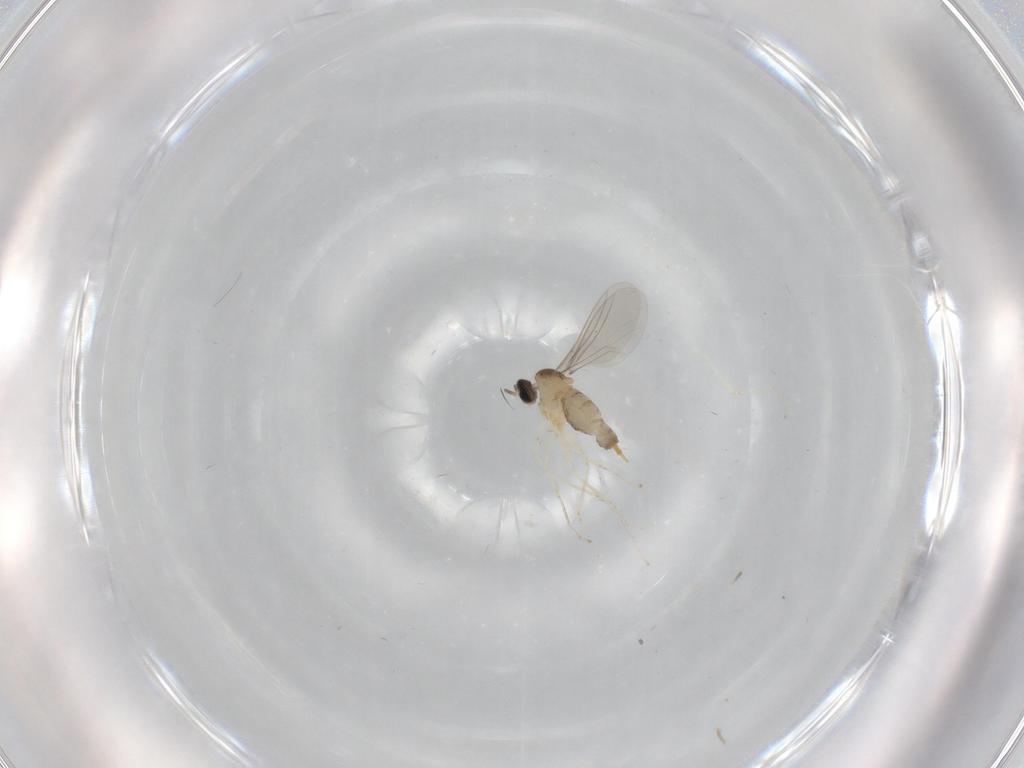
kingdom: Animalia
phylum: Arthropoda
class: Insecta
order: Diptera
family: Cecidomyiidae
